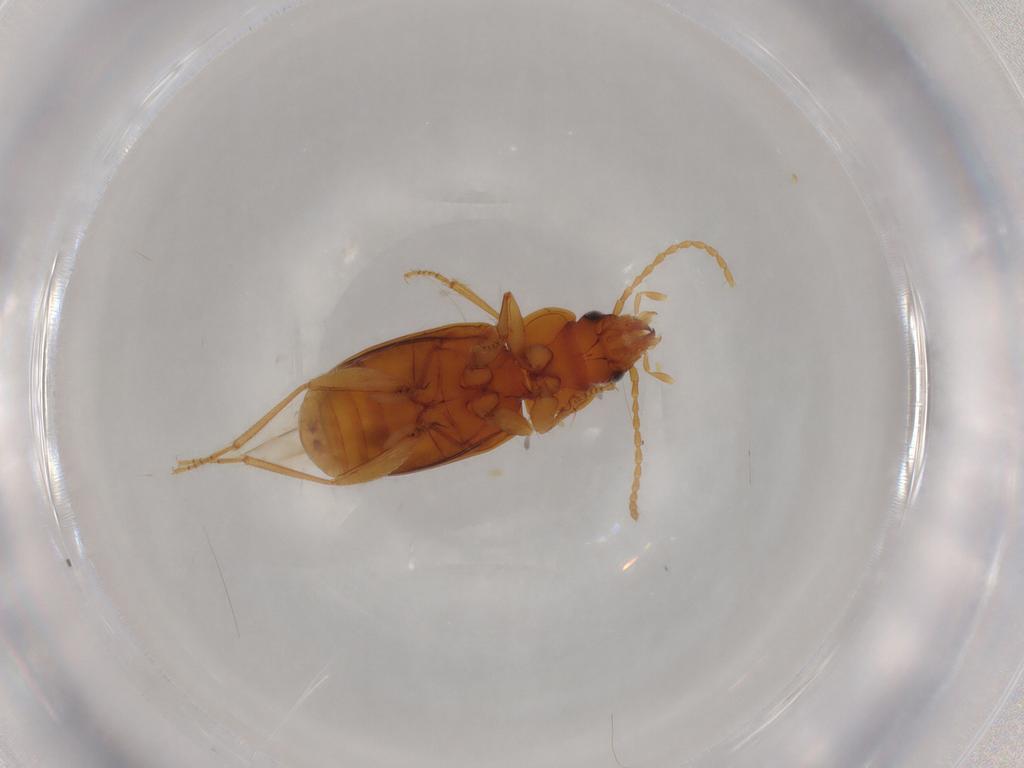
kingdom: Animalia
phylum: Arthropoda
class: Insecta
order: Coleoptera
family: Carabidae
